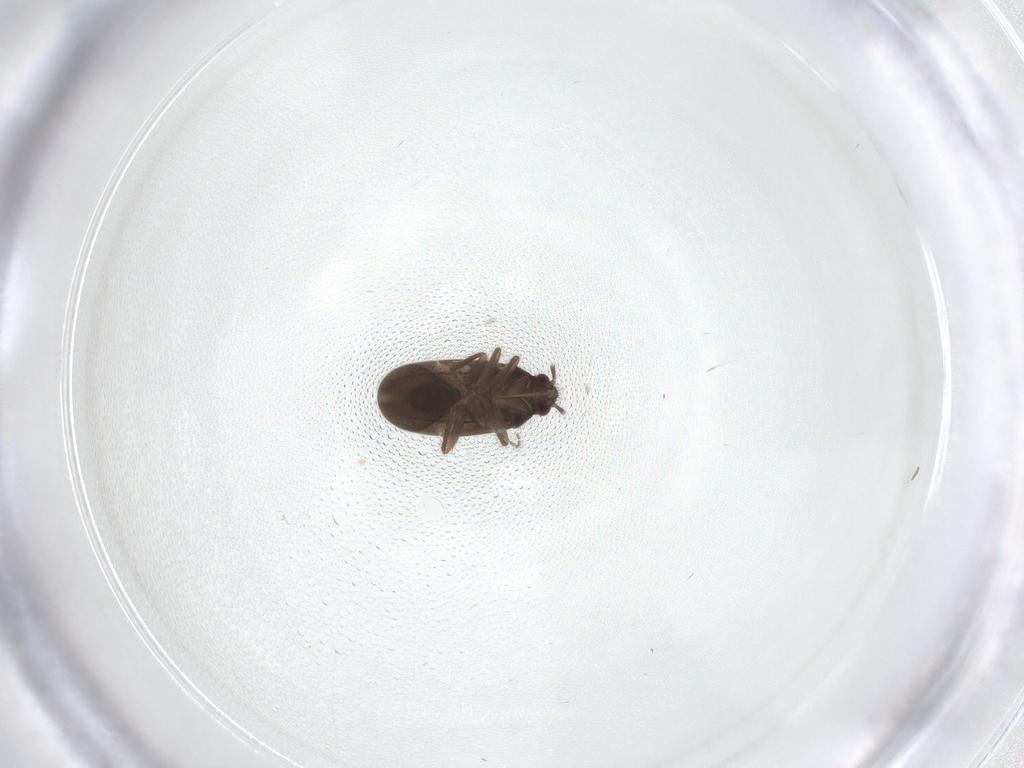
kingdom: Animalia
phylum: Arthropoda
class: Insecta
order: Hemiptera
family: Ceratocombidae
